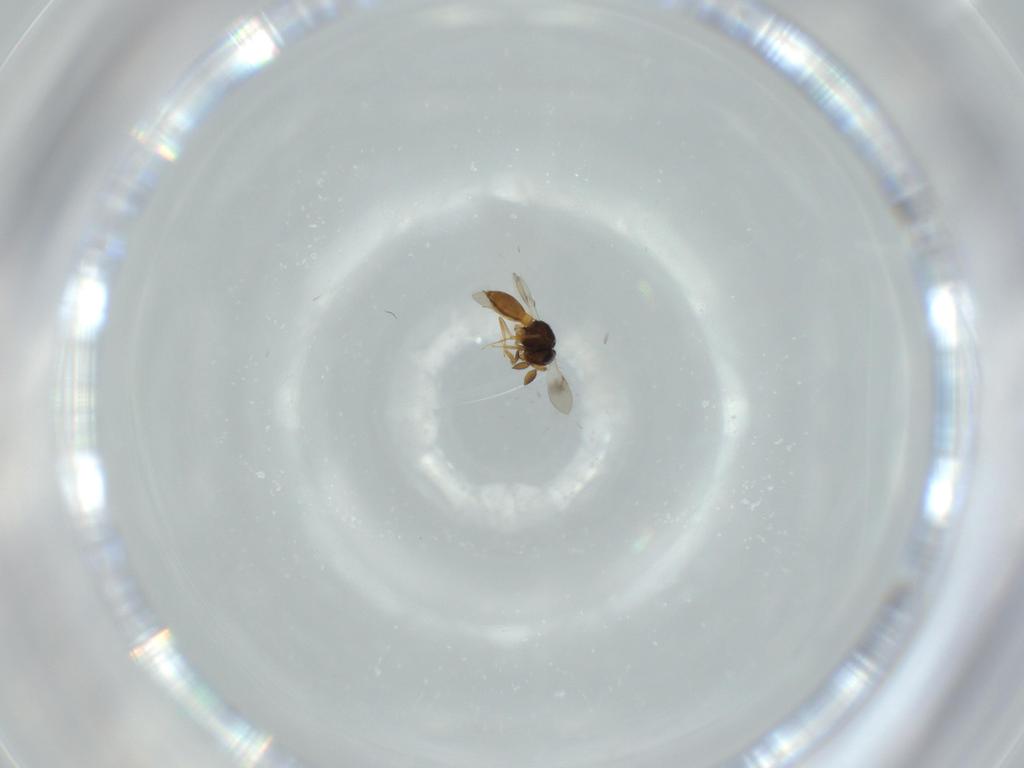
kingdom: Animalia
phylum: Arthropoda
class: Insecta
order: Hymenoptera
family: Scelionidae
